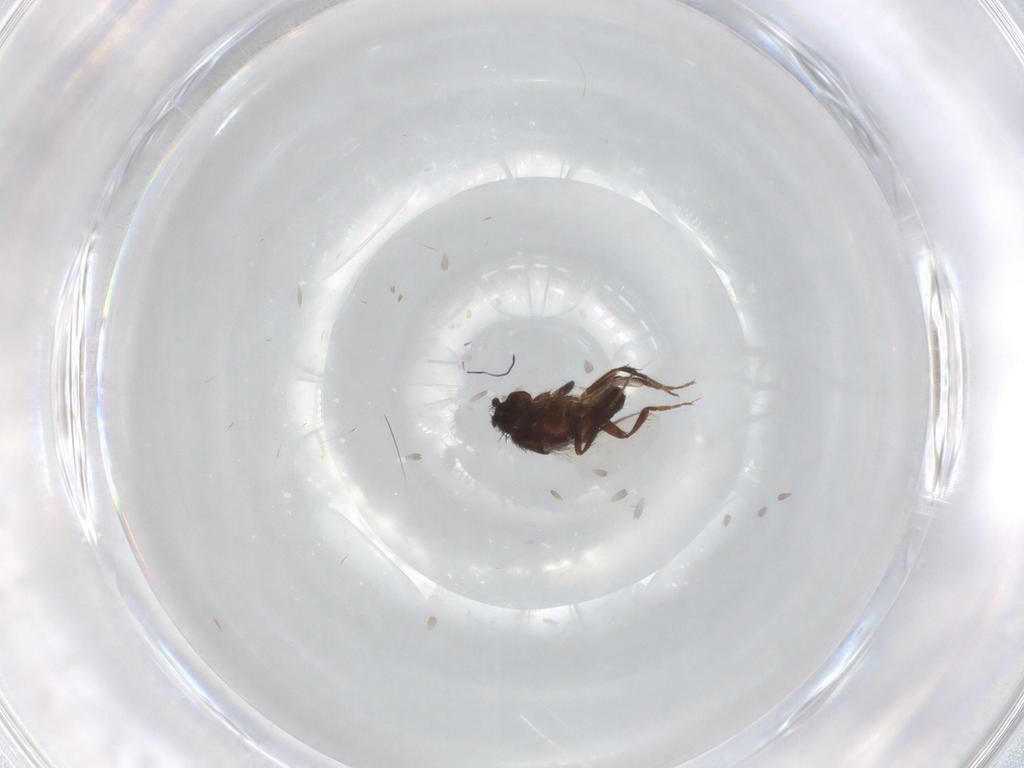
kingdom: Animalia
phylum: Arthropoda
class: Insecta
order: Diptera
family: Sphaeroceridae
